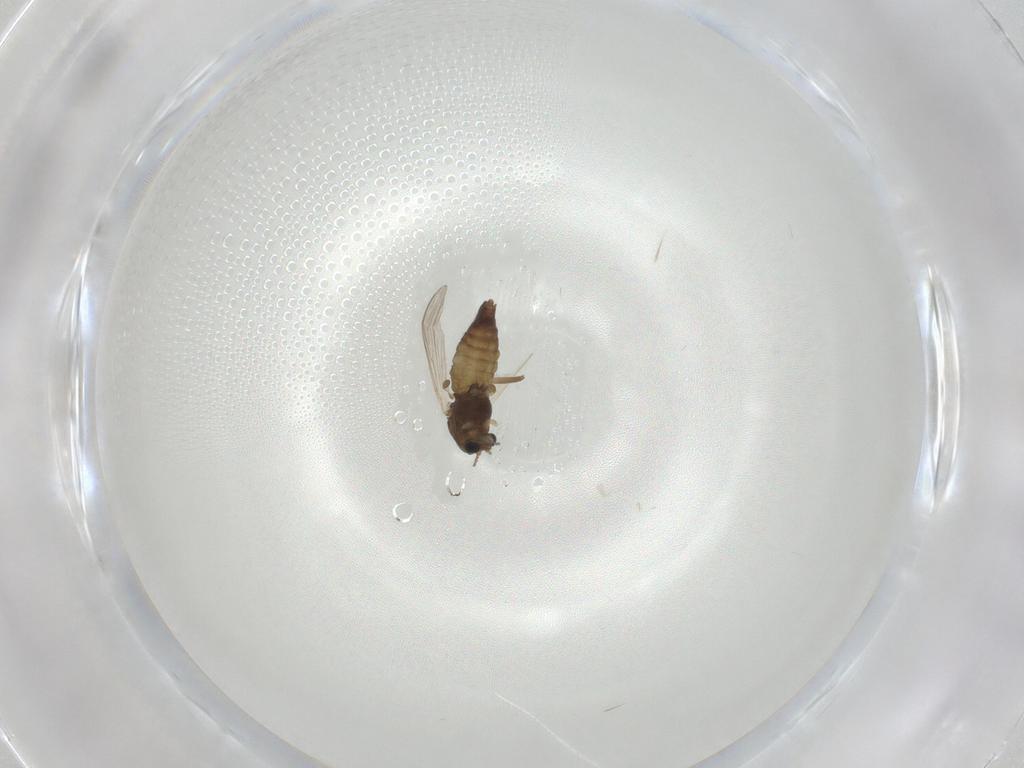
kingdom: Animalia
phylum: Arthropoda
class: Insecta
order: Diptera
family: Chironomidae
